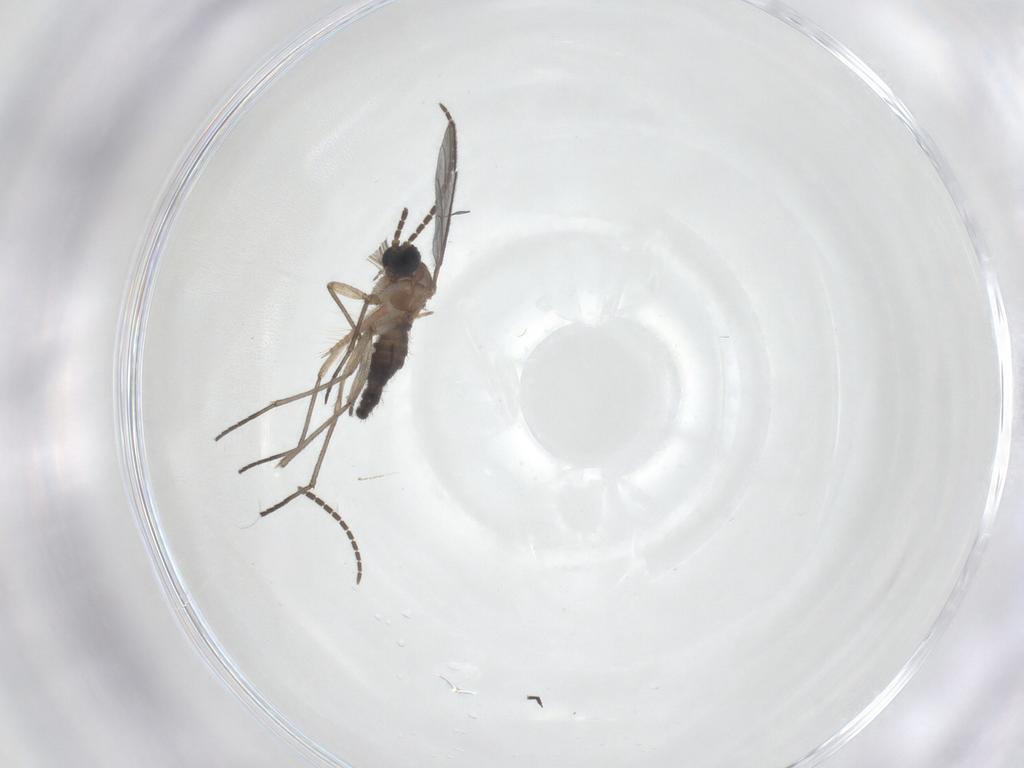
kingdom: Animalia
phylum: Arthropoda
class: Insecta
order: Diptera
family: Sciaridae
